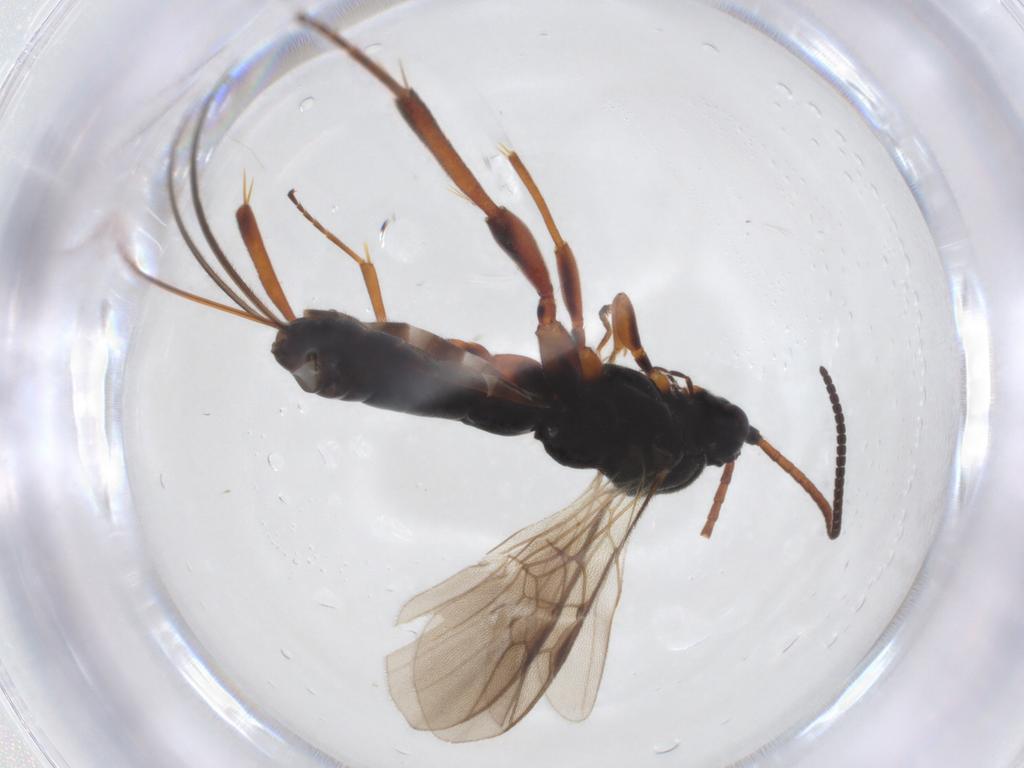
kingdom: Animalia
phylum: Arthropoda
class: Insecta
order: Hymenoptera
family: Braconidae
